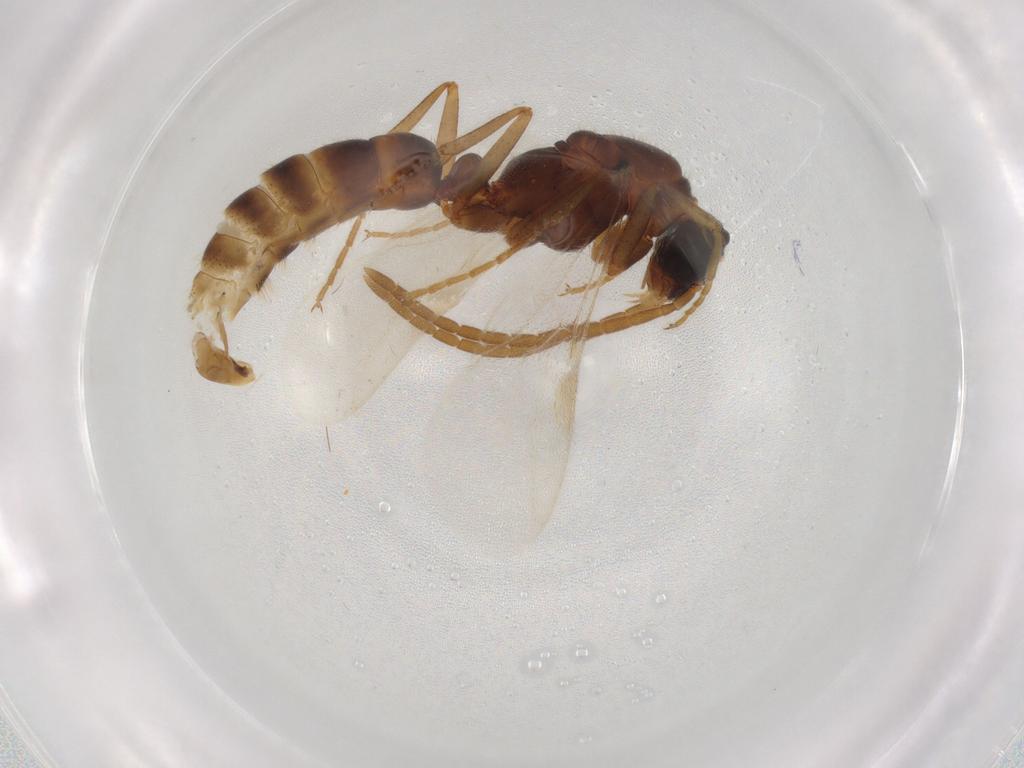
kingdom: Animalia
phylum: Arthropoda
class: Insecta
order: Hymenoptera
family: Formicidae
